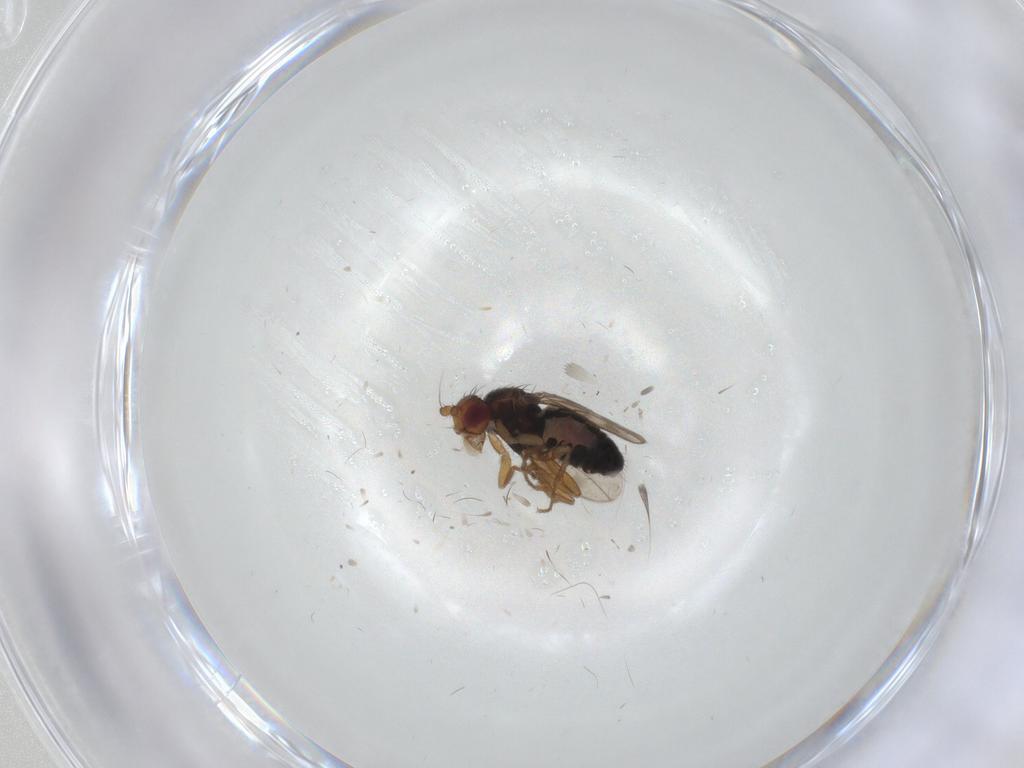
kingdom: Animalia
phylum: Arthropoda
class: Insecta
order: Diptera
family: Sphaeroceridae
